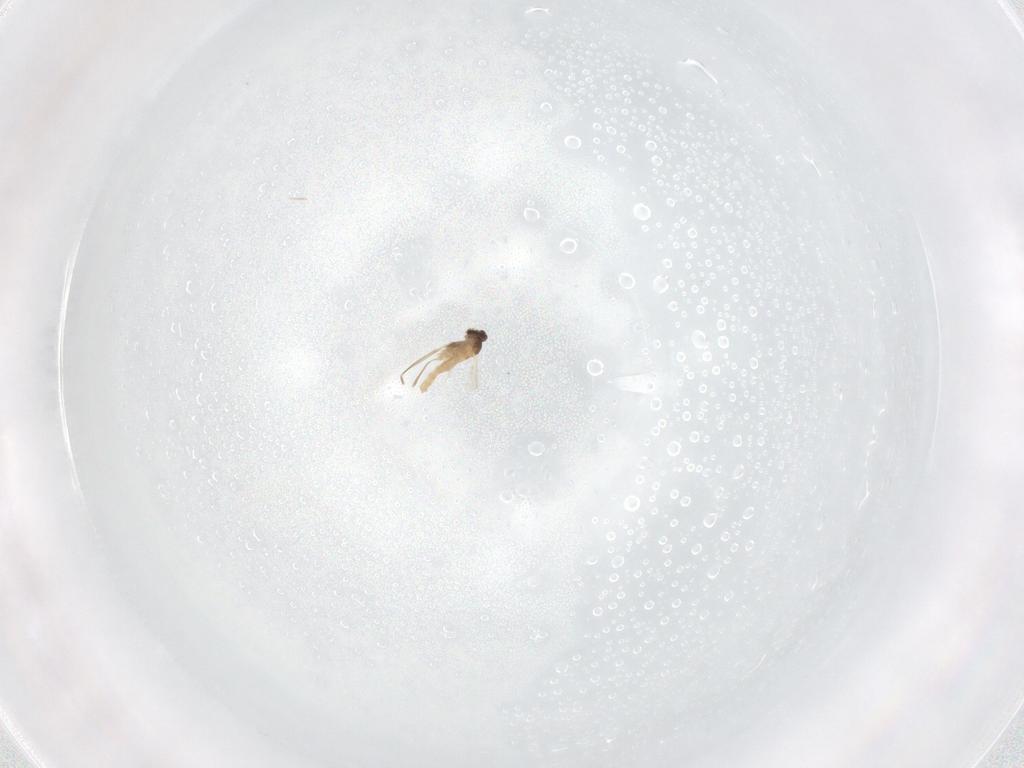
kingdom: Animalia
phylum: Arthropoda
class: Insecta
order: Diptera
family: Cecidomyiidae
